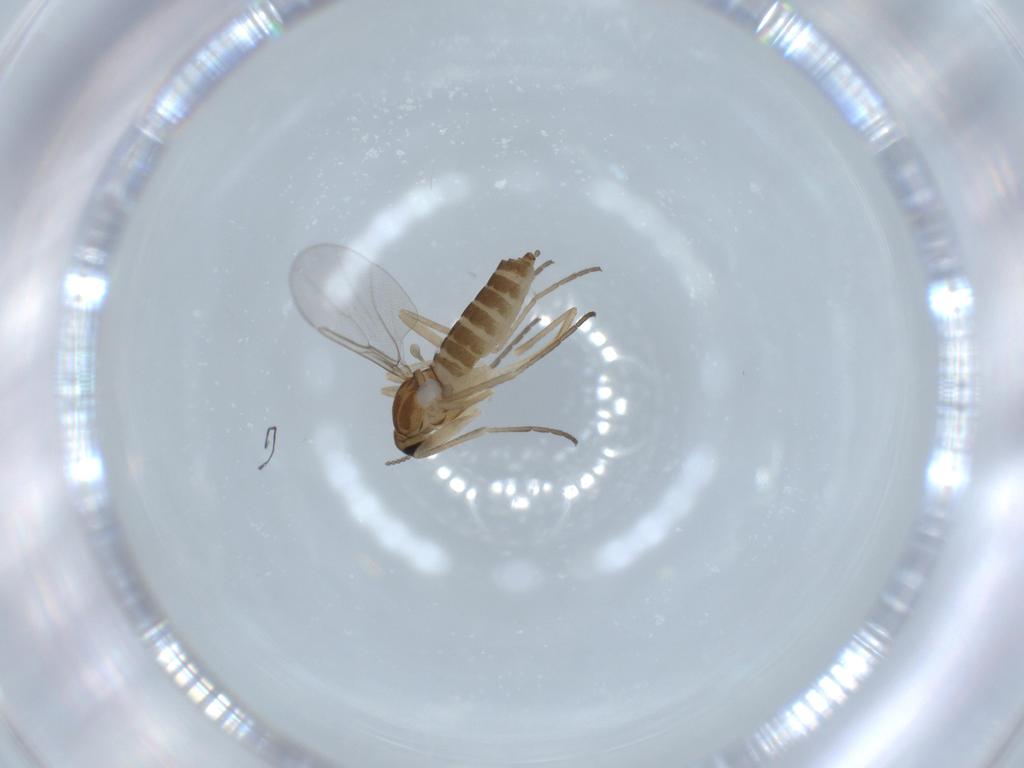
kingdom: Animalia
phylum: Arthropoda
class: Insecta
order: Diptera
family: Cecidomyiidae
